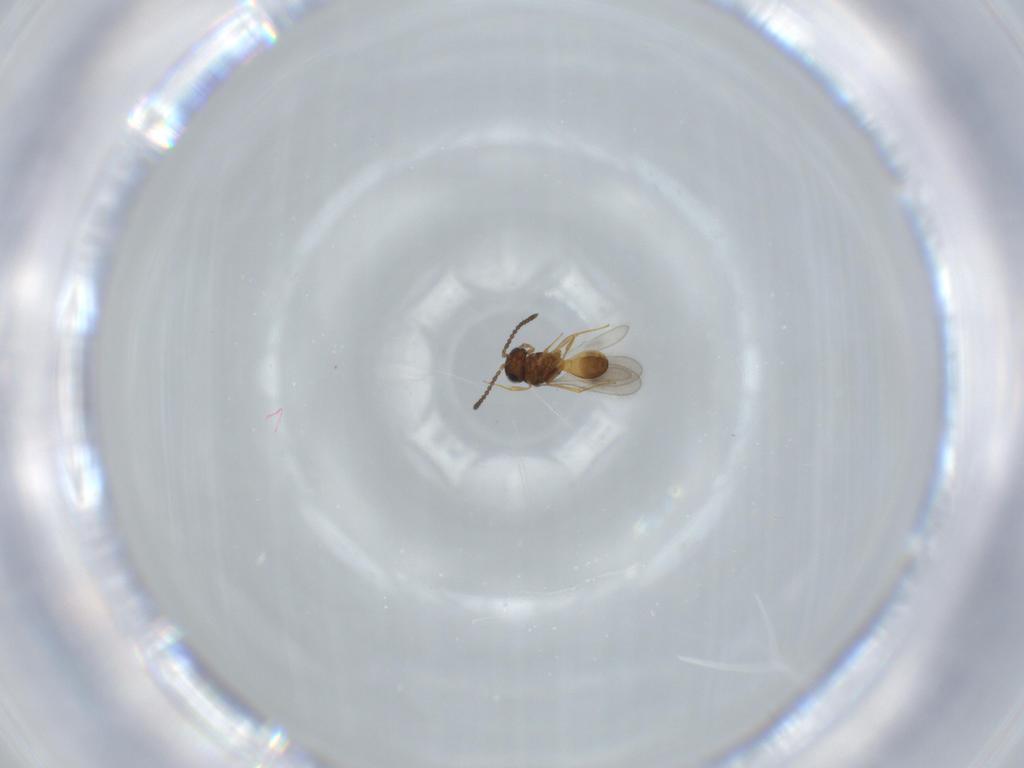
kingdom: Animalia
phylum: Arthropoda
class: Insecta
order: Hymenoptera
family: Scelionidae
